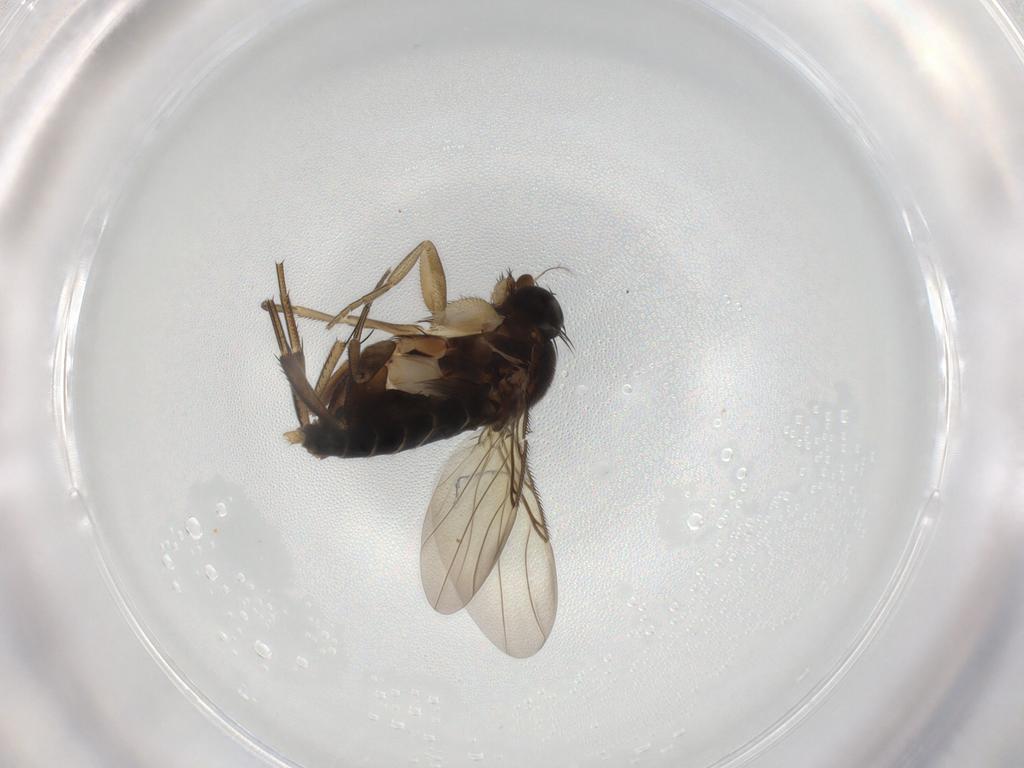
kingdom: Animalia
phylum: Arthropoda
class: Insecta
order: Diptera
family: Phoridae
